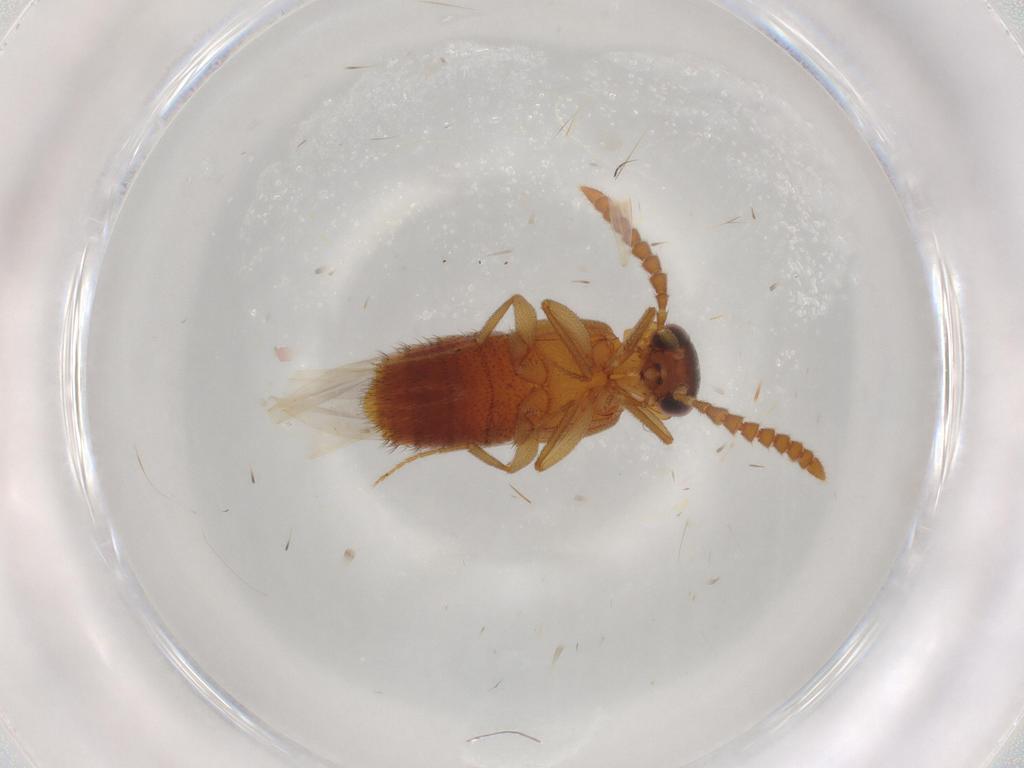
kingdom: Animalia
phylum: Arthropoda
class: Insecta
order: Coleoptera
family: Staphylinidae
